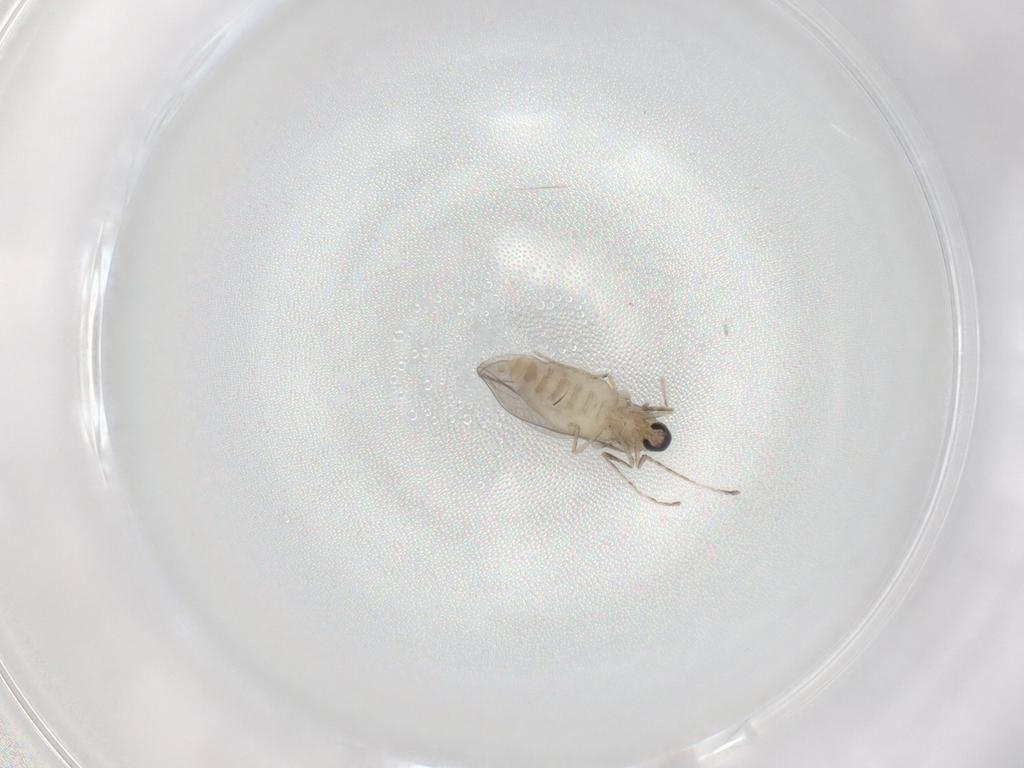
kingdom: Animalia
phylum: Arthropoda
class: Insecta
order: Diptera
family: Cecidomyiidae
